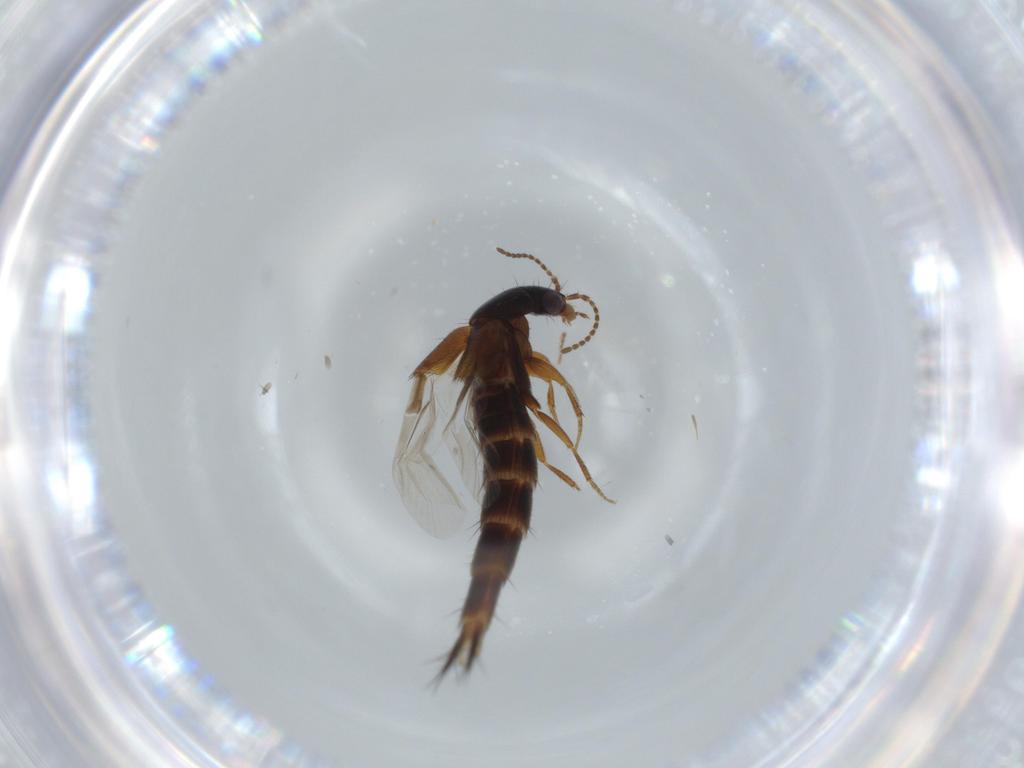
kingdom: Animalia
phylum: Arthropoda
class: Insecta
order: Coleoptera
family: Staphylinidae
